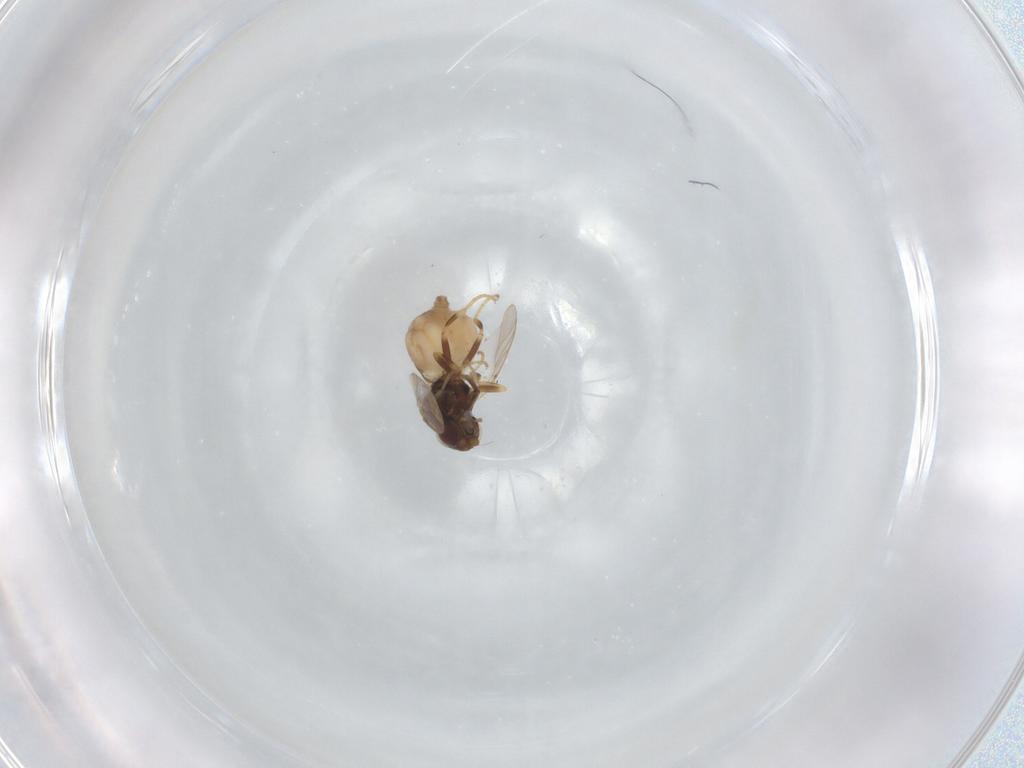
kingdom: Animalia
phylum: Arthropoda
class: Insecta
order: Diptera
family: Chloropidae
